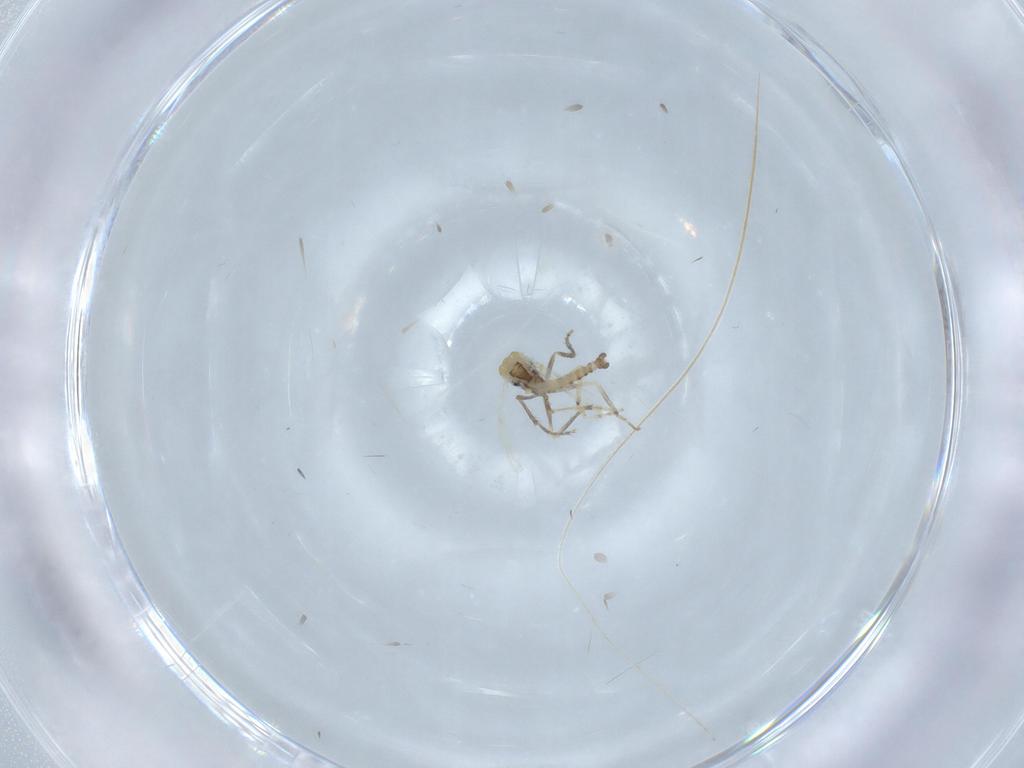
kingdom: Animalia
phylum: Arthropoda
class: Insecta
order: Diptera
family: Ceratopogonidae
